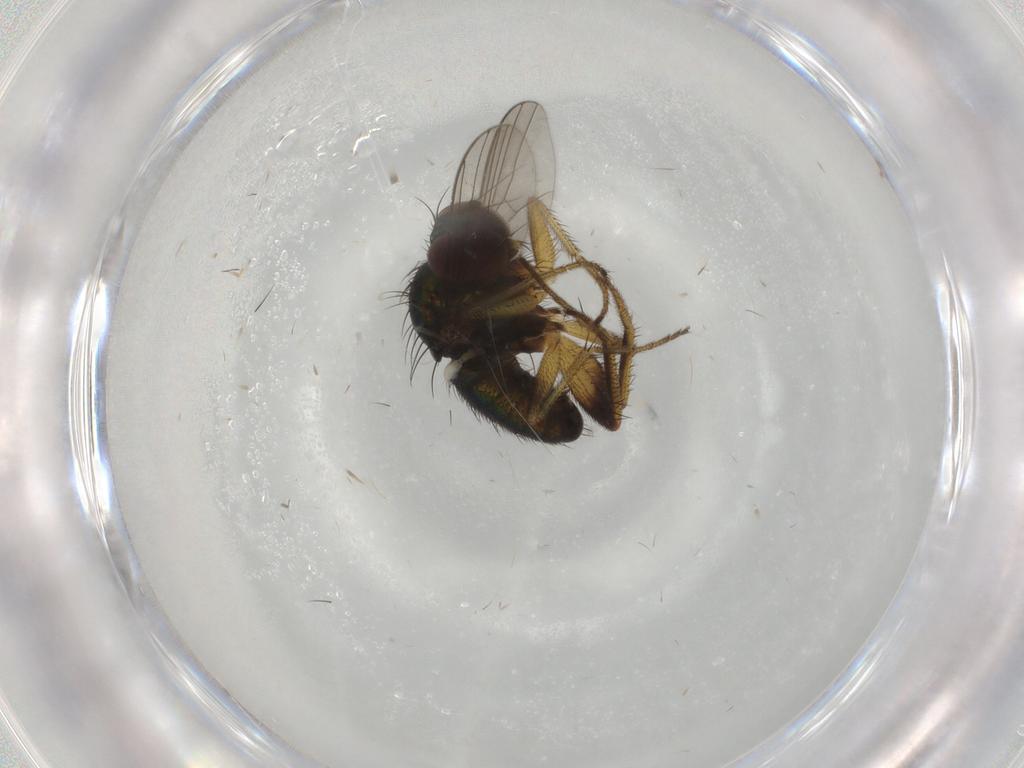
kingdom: Animalia
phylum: Arthropoda
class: Insecta
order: Diptera
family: Dolichopodidae
